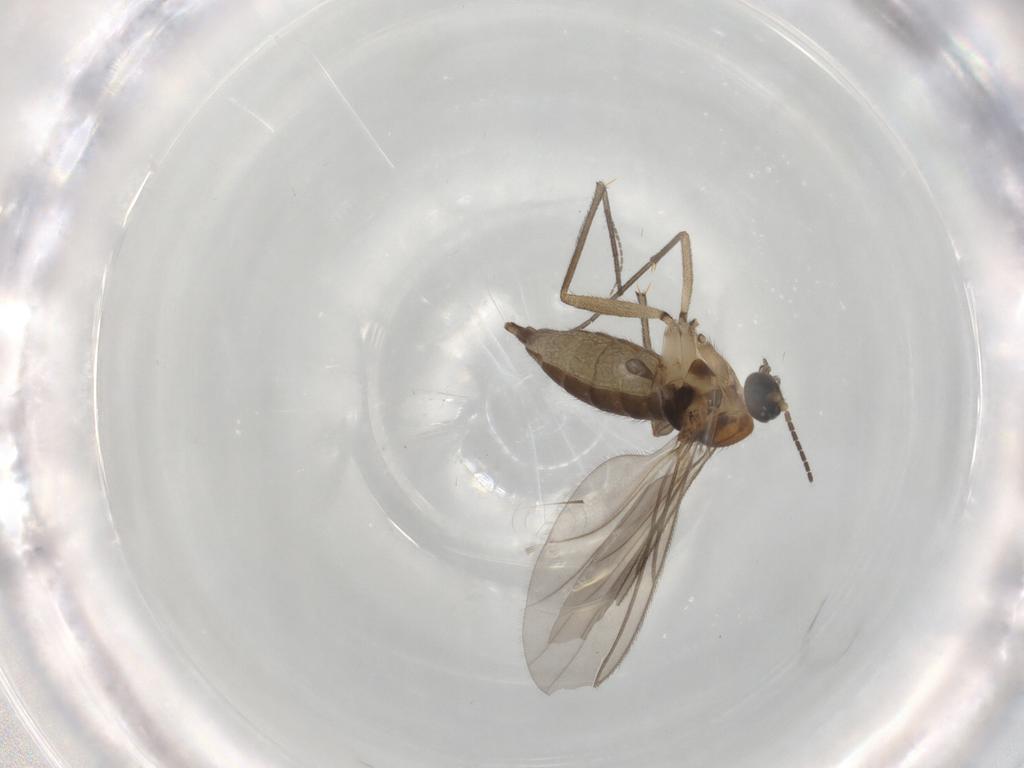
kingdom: Animalia
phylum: Arthropoda
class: Insecta
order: Diptera
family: Sciaridae
